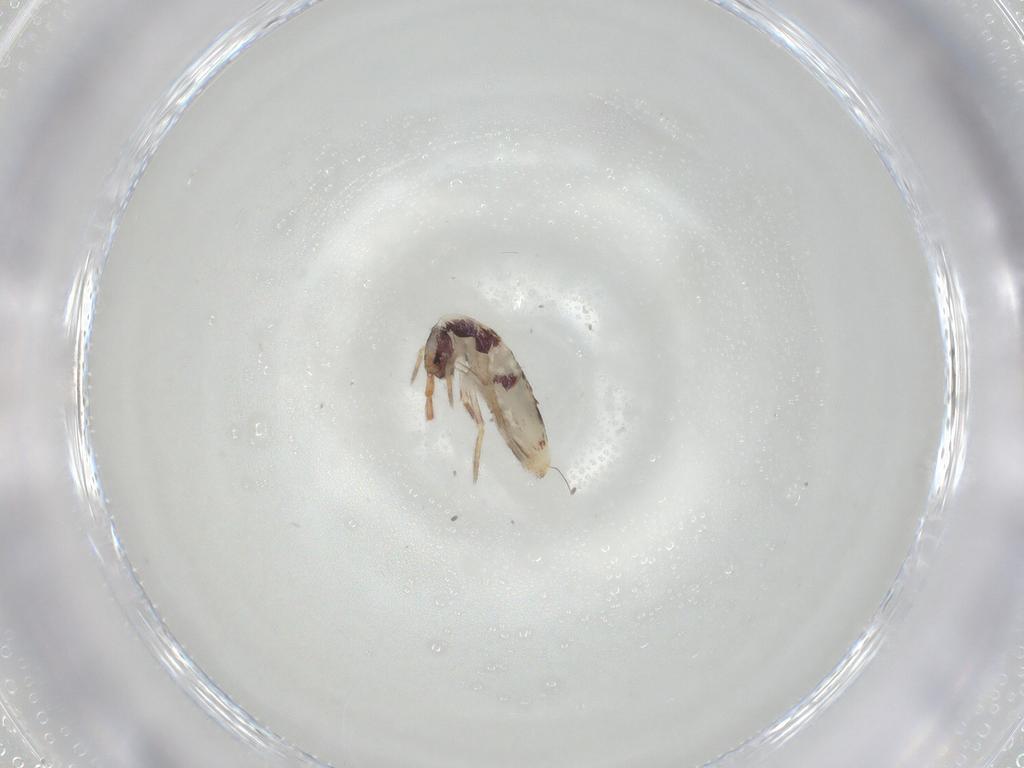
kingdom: Animalia
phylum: Arthropoda
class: Collembola
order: Entomobryomorpha
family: Entomobryidae
